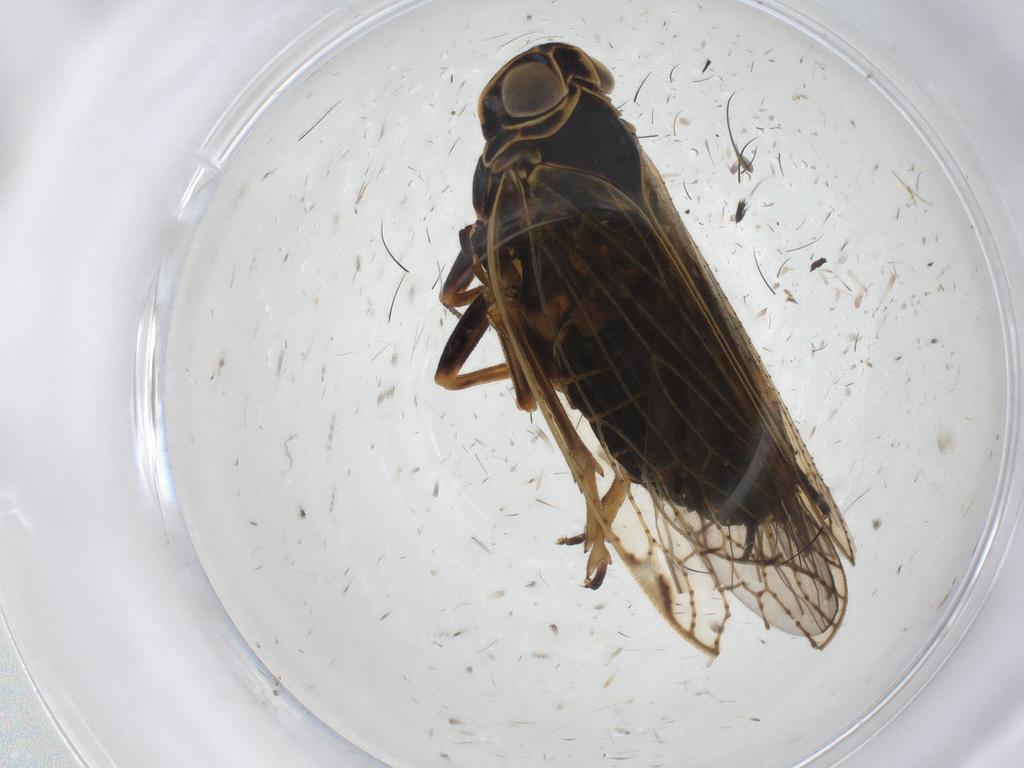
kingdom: Animalia
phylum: Arthropoda
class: Insecta
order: Hemiptera
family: Cixiidae
